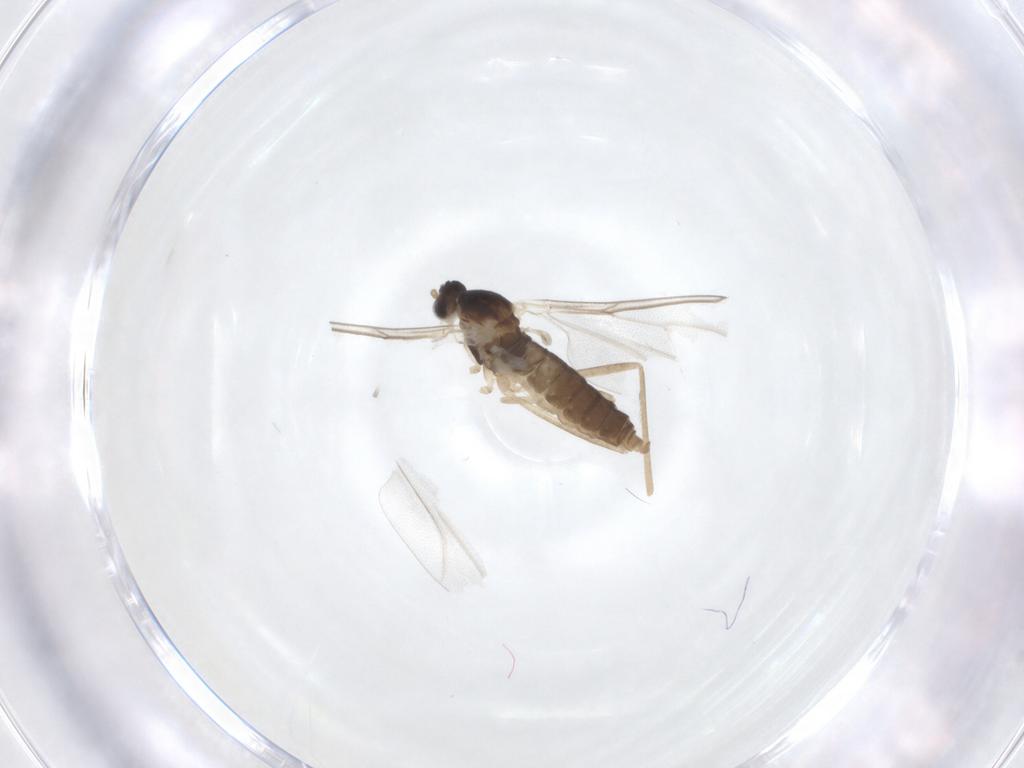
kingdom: Animalia
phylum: Arthropoda
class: Insecta
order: Diptera
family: Cecidomyiidae
